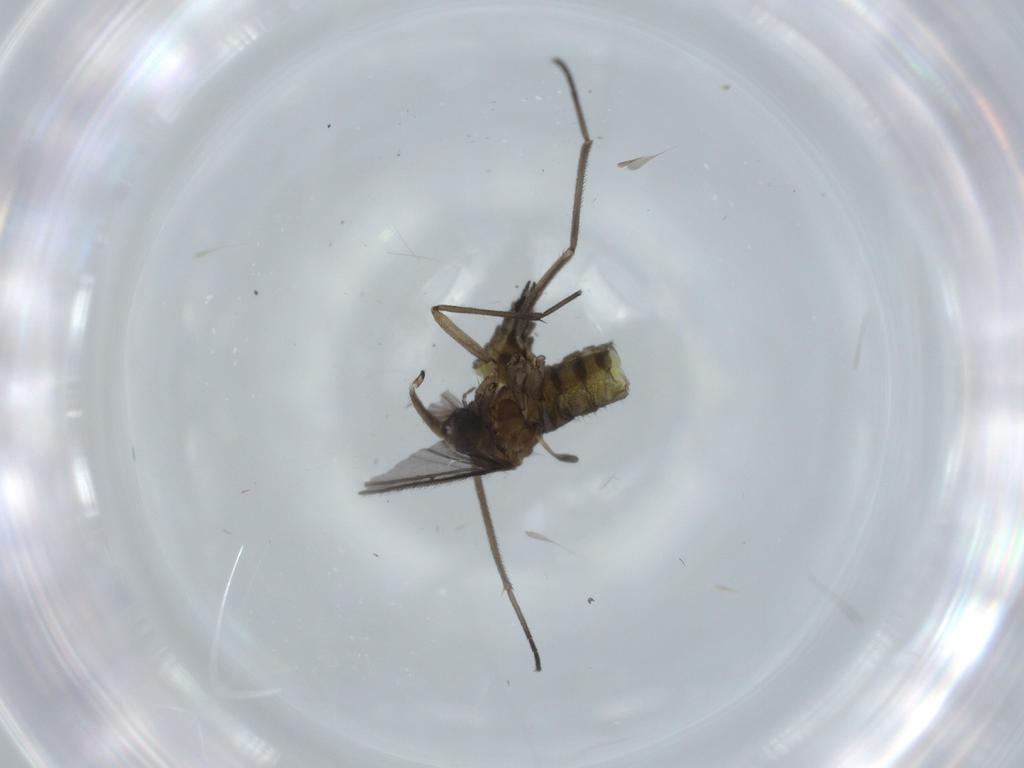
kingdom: Animalia
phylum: Arthropoda
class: Insecta
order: Diptera
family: Sciaridae
